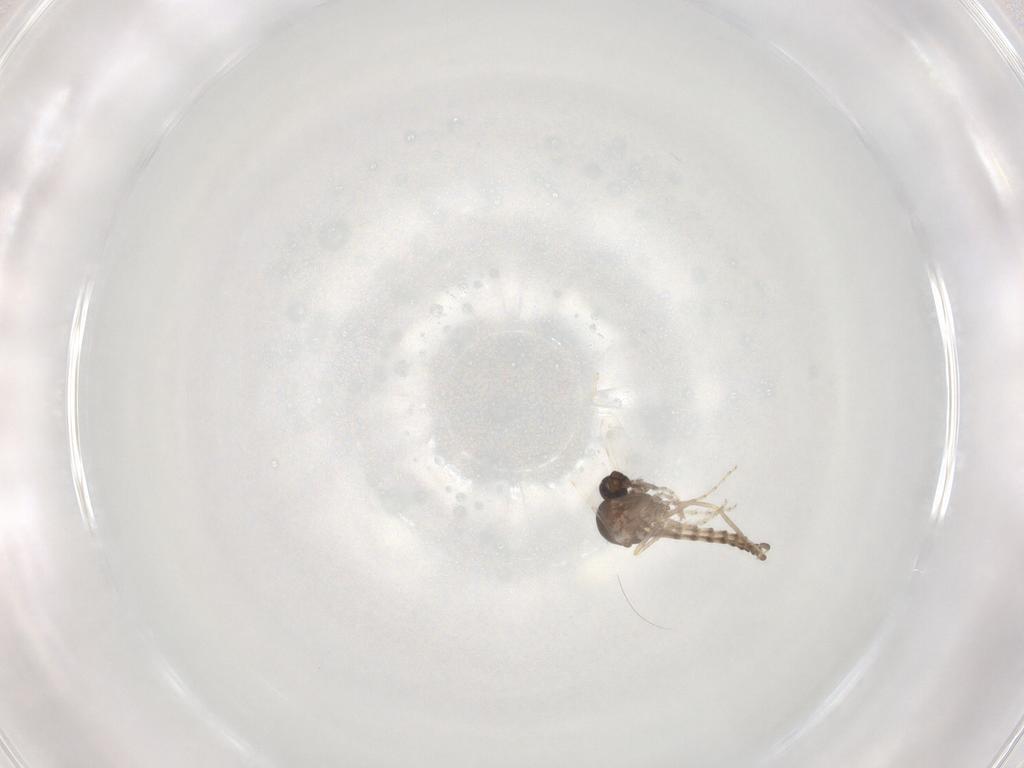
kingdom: Animalia
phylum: Arthropoda
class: Insecta
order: Diptera
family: Ceratopogonidae
